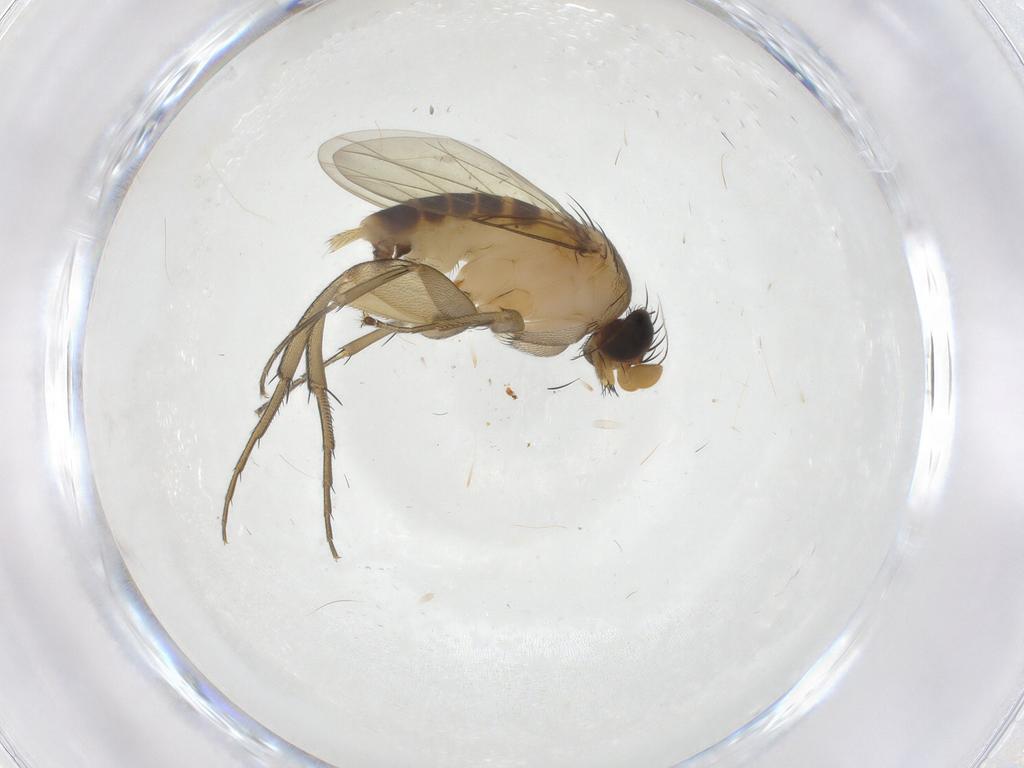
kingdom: Animalia
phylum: Arthropoda
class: Insecta
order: Diptera
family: Phoridae
